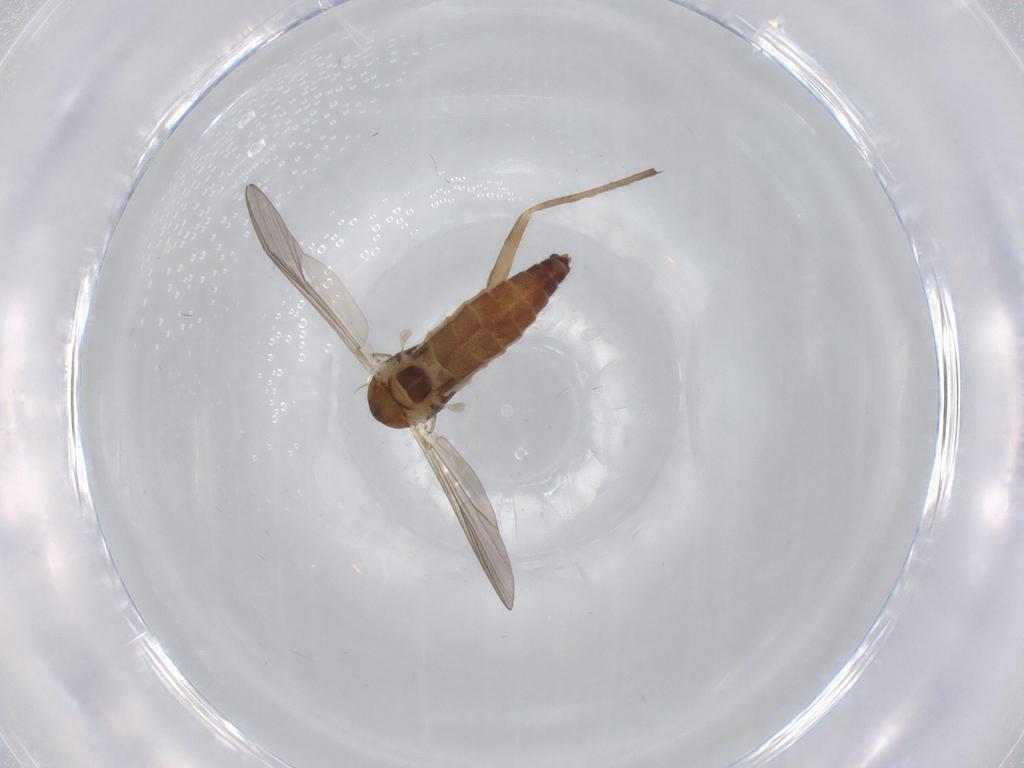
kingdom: Animalia
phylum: Arthropoda
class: Insecta
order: Diptera
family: Chironomidae
